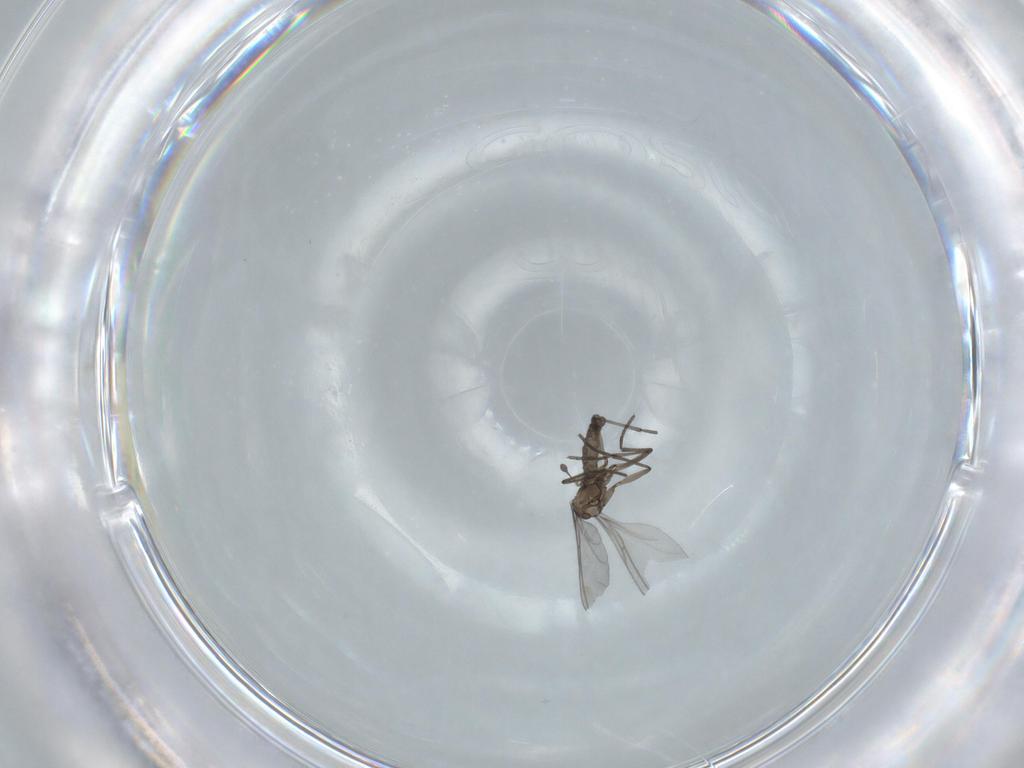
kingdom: Animalia
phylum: Arthropoda
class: Insecta
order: Diptera
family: Sciaridae
